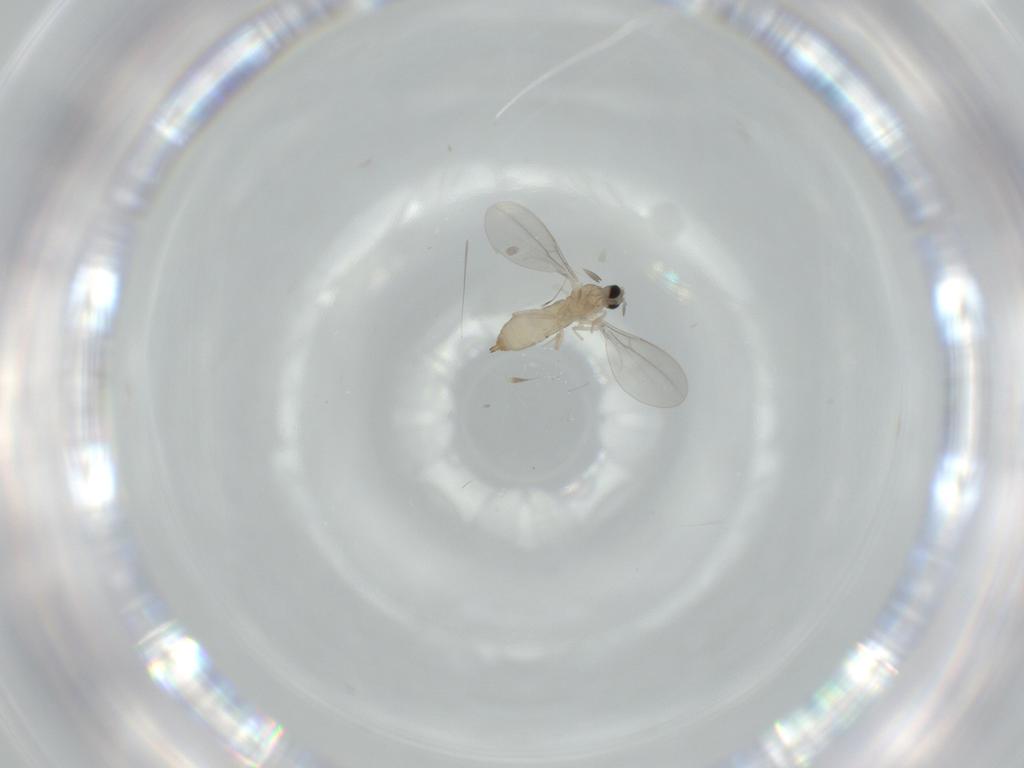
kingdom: Animalia
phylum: Arthropoda
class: Insecta
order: Diptera
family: Cecidomyiidae
